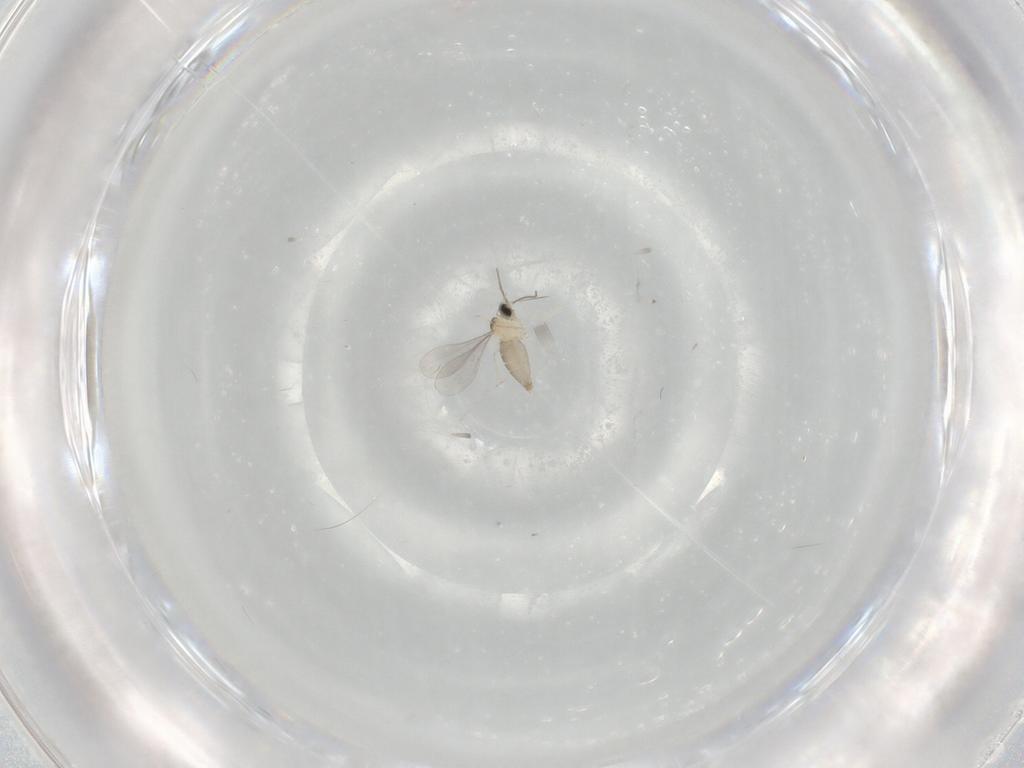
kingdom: Animalia
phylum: Arthropoda
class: Insecta
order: Diptera
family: Cecidomyiidae
